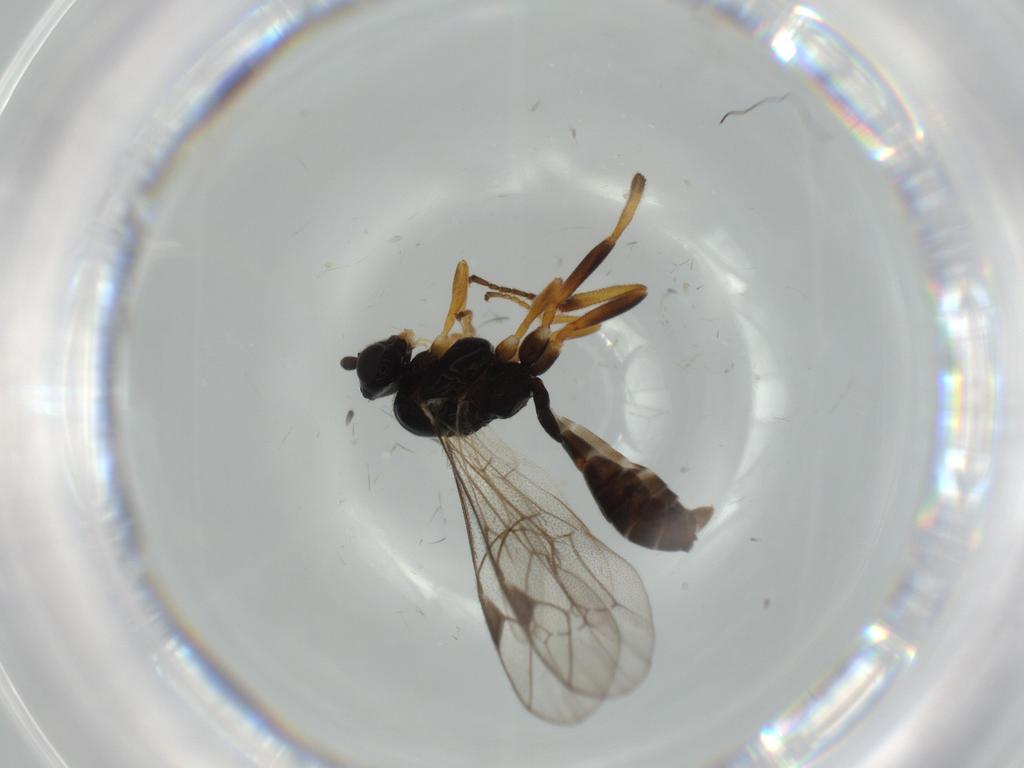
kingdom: Animalia
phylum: Arthropoda
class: Insecta
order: Hymenoptera
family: Ichneumonidae
